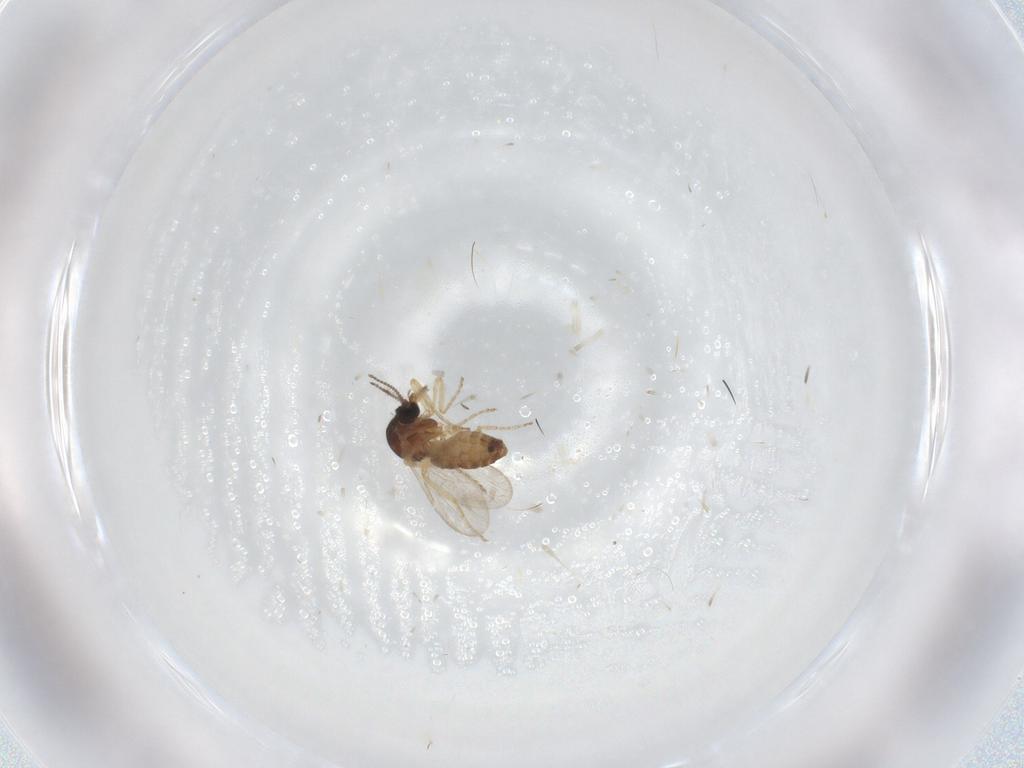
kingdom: Animalia
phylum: Arthropoda
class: Insecta
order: Diptera
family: Ceratopogonidae
